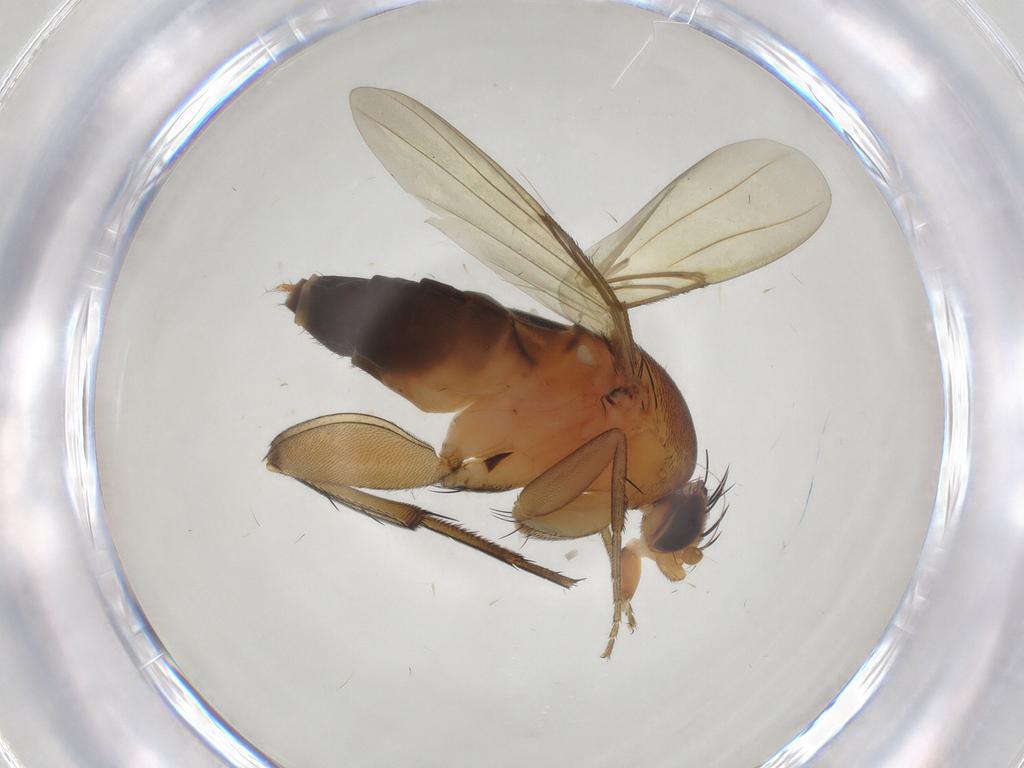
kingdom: Animalia
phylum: Arthropoda
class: Insecta
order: Diptera
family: Sphaeroceridae
